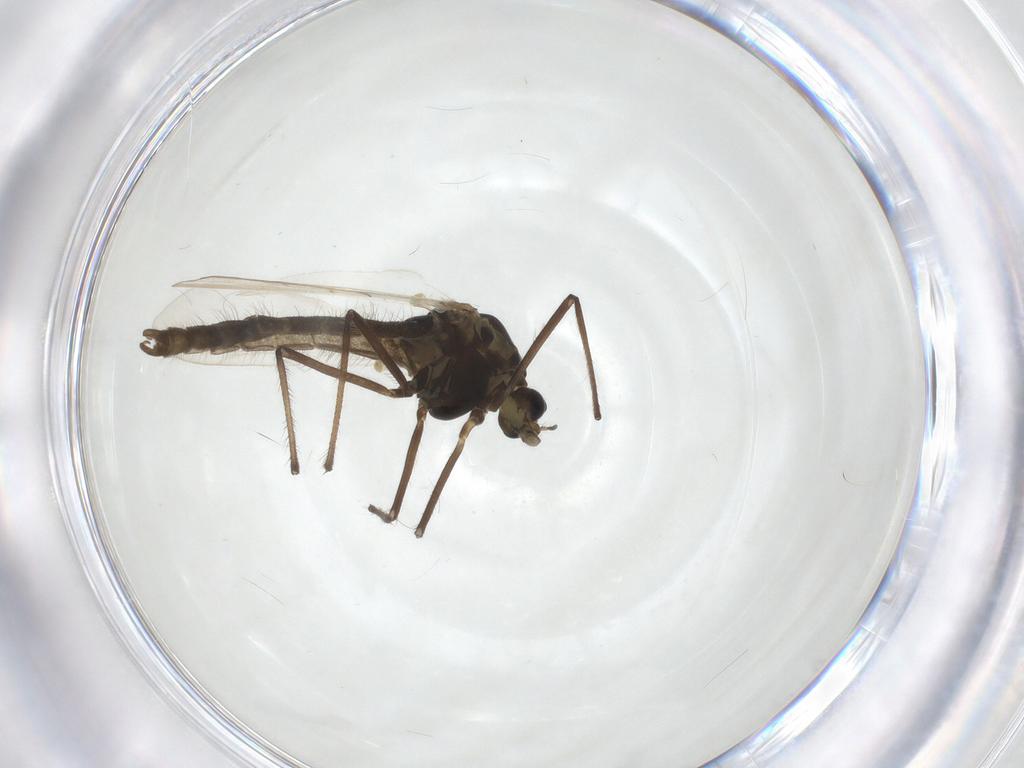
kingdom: Animalia
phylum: Arthropoda
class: Insecta
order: Diptera
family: Chironomidae
